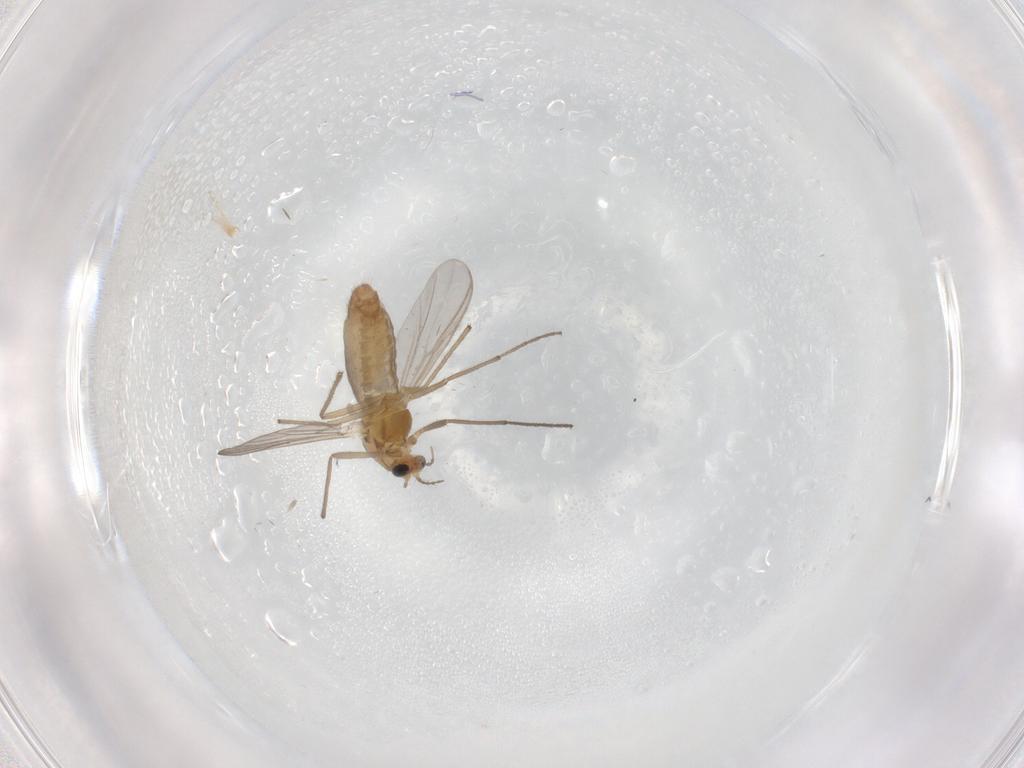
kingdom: Animalia
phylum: Arthropoda
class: Insecta
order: Diptera
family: Chironomidae
